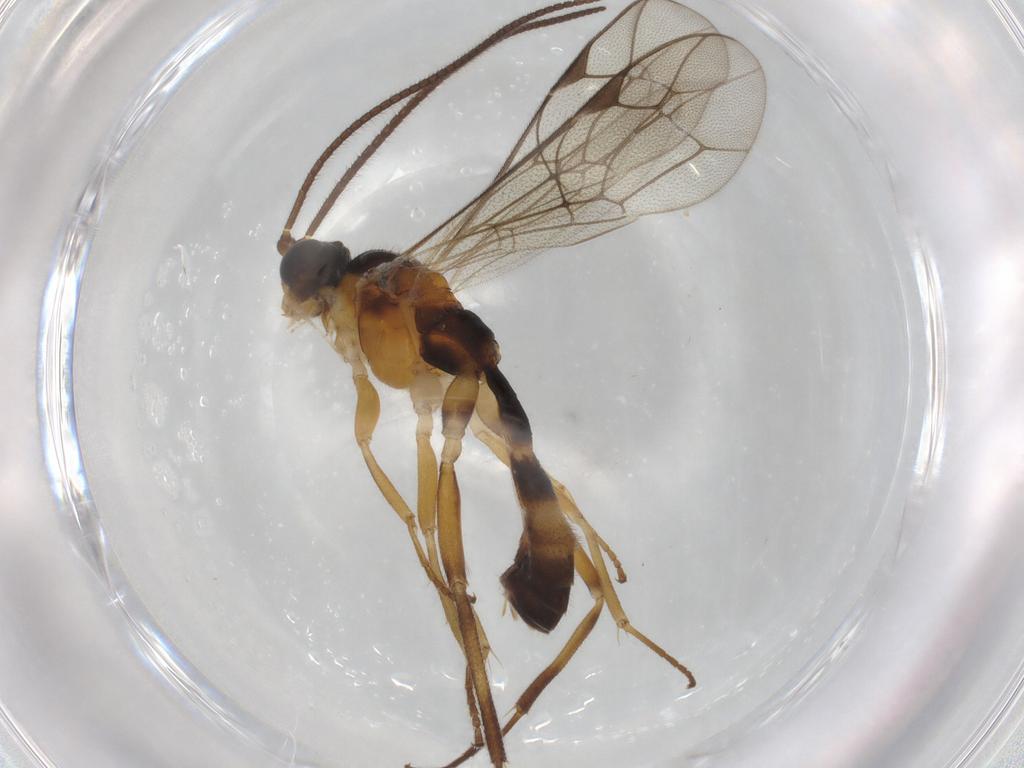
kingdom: Animalia
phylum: Arthropoda
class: Insecta
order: Hymenoptera
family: Ichneumonidae
